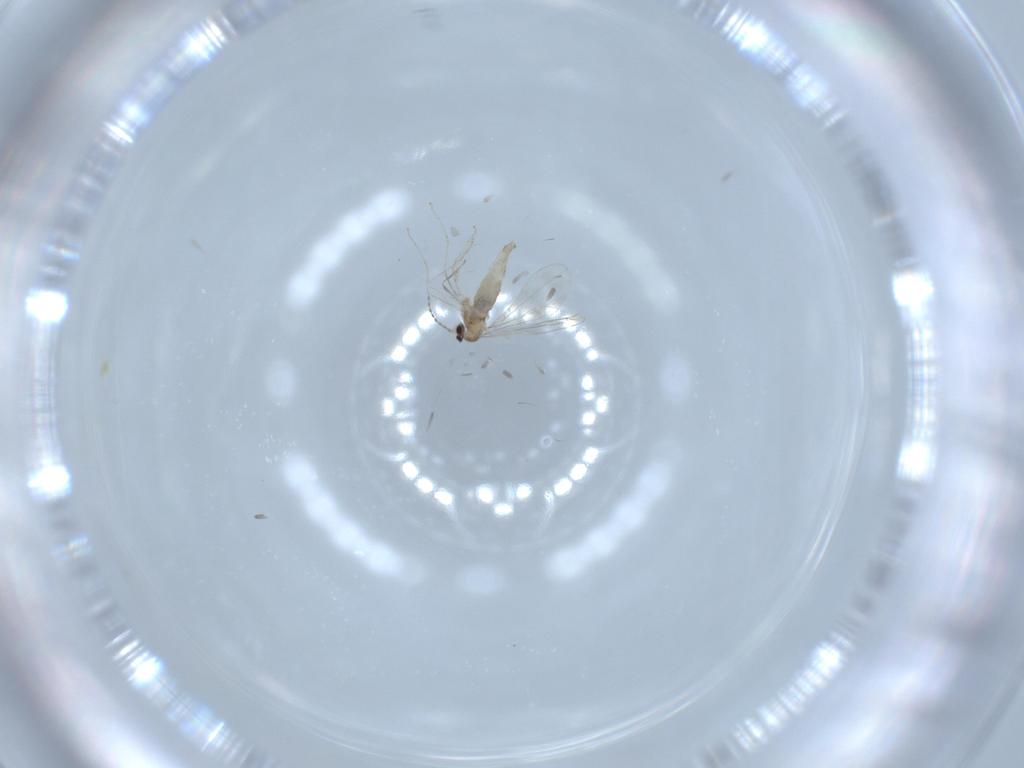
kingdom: Animalia
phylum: Arthropoda
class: Insecta
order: Diptera
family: Cecidomyiidae
